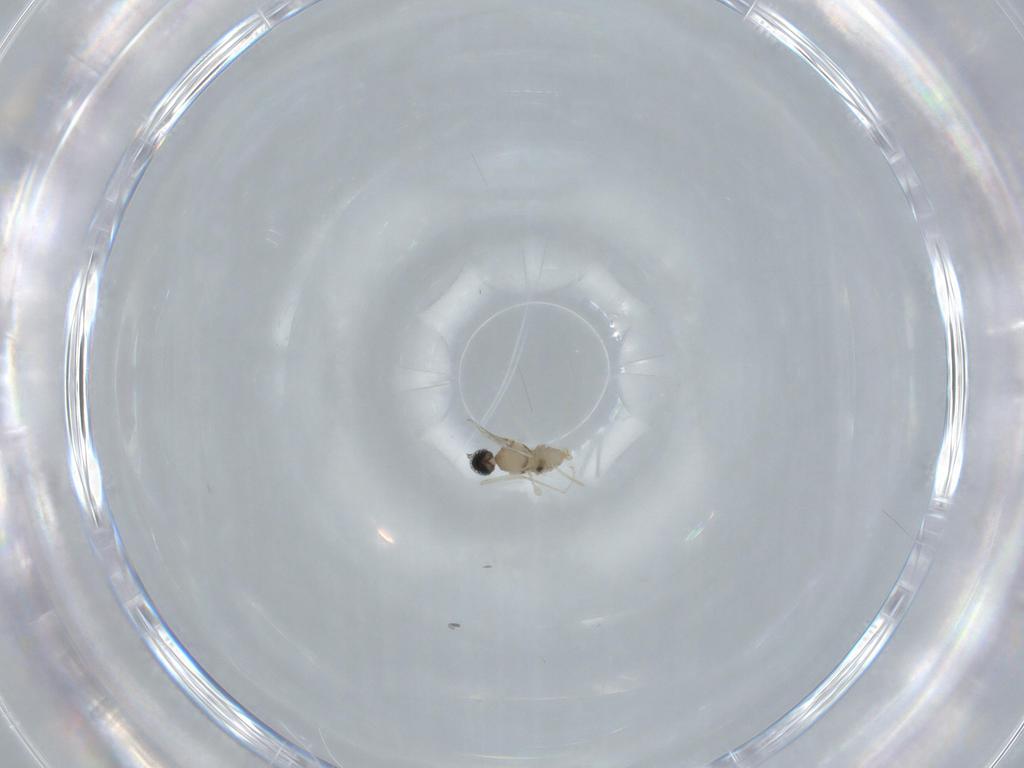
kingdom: Animalia
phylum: Arthropoda
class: Insecta
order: Diptera
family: Cecidomyiidae
